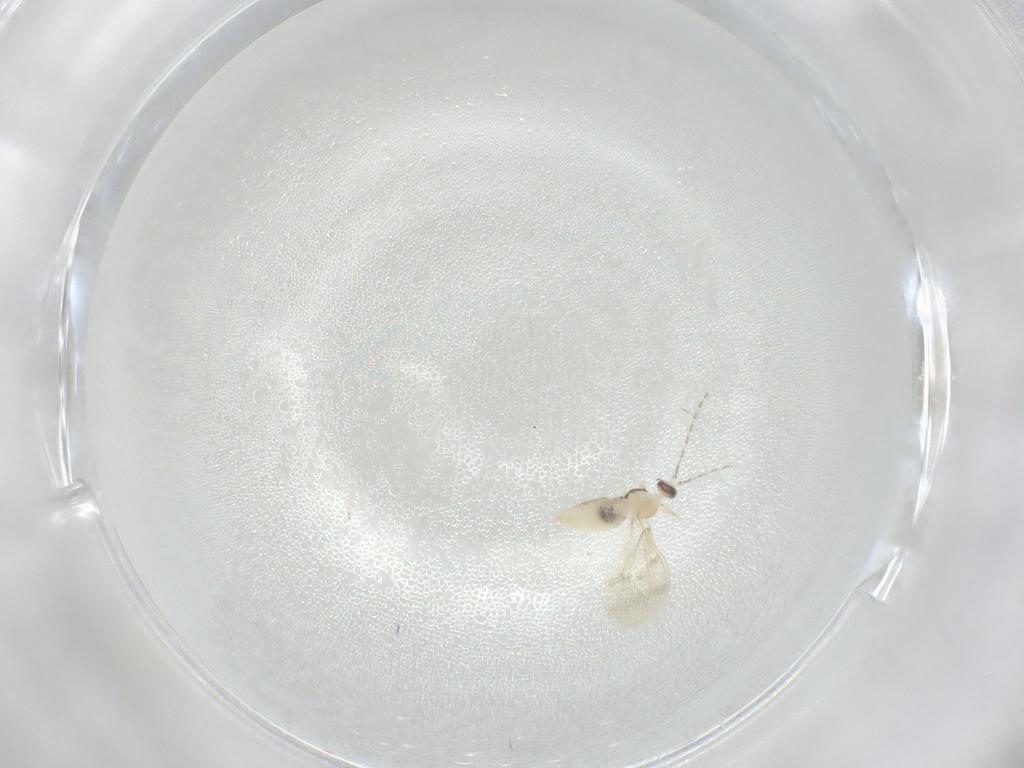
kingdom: Animalia
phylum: Arthropoda
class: Insecta
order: Diptera
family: Cecidomyiidae
